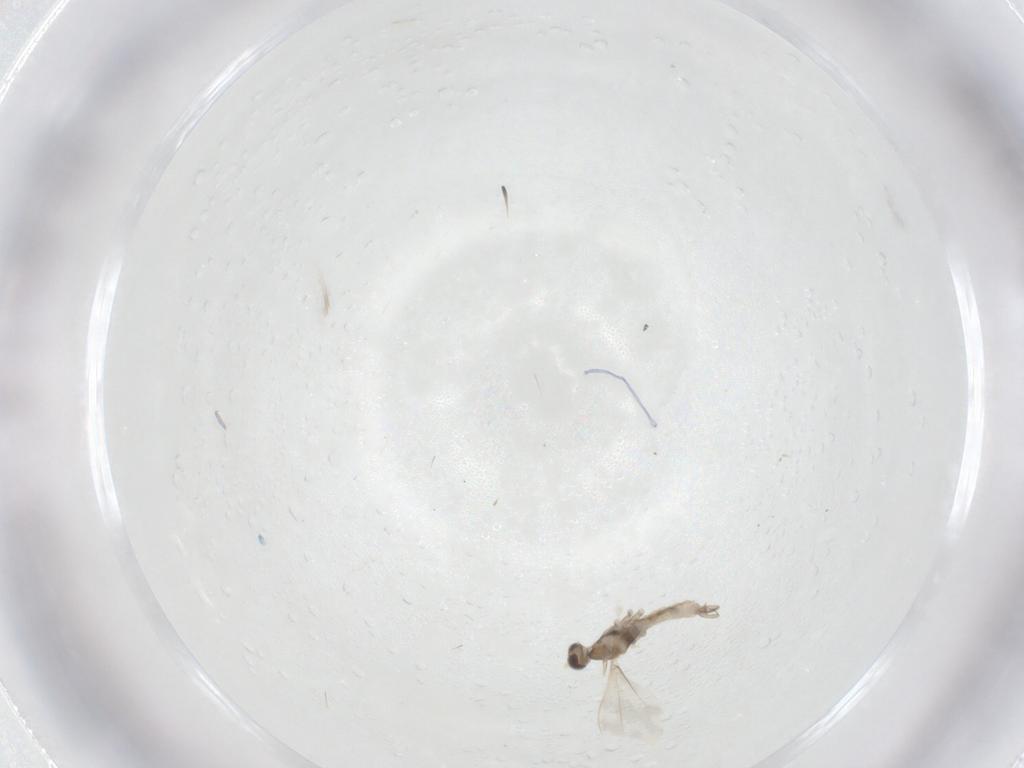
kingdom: Animalia
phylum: Arthropoda
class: Insecta
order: Diptera
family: Cecidomyiidae
